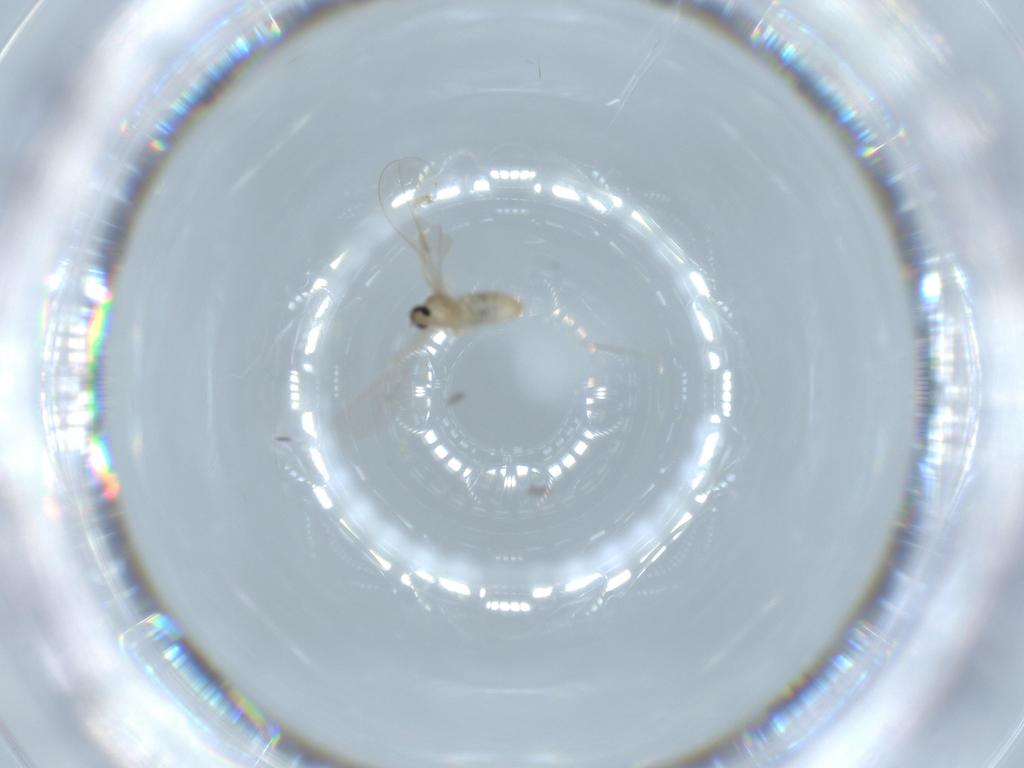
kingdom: Animalia
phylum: Arthropoda
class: Insecta
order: Diptera
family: Cecidomyiidae
